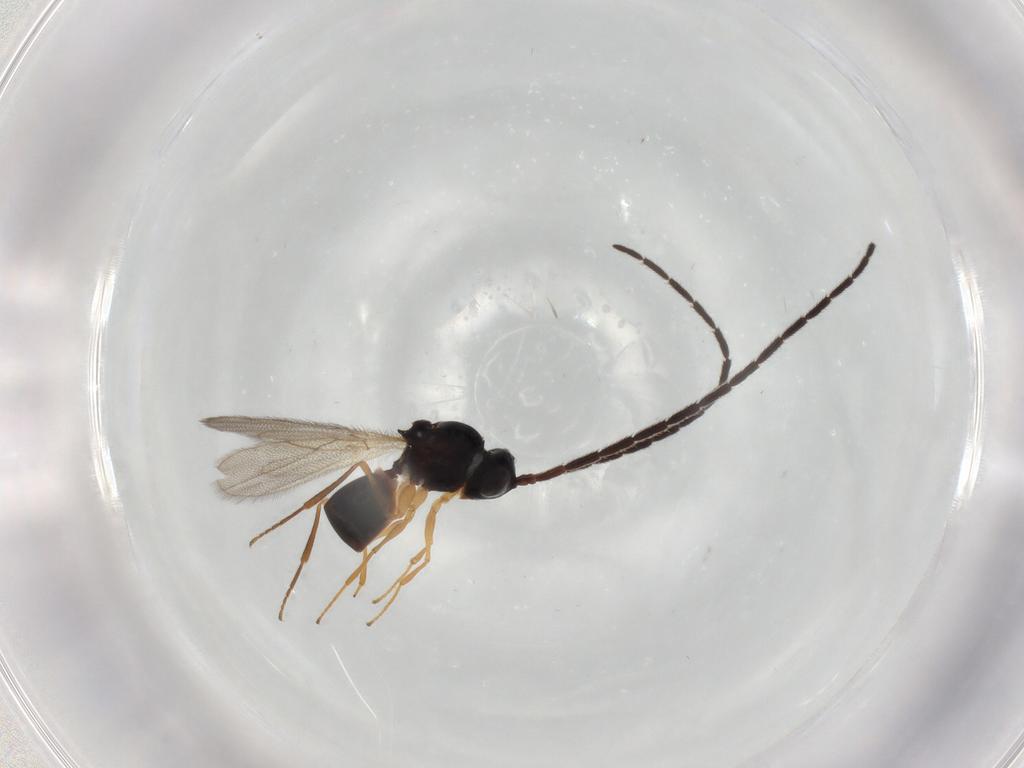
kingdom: Animalia
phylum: Arthropoda
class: Insecta
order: Hymenoptera
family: Figitidae
